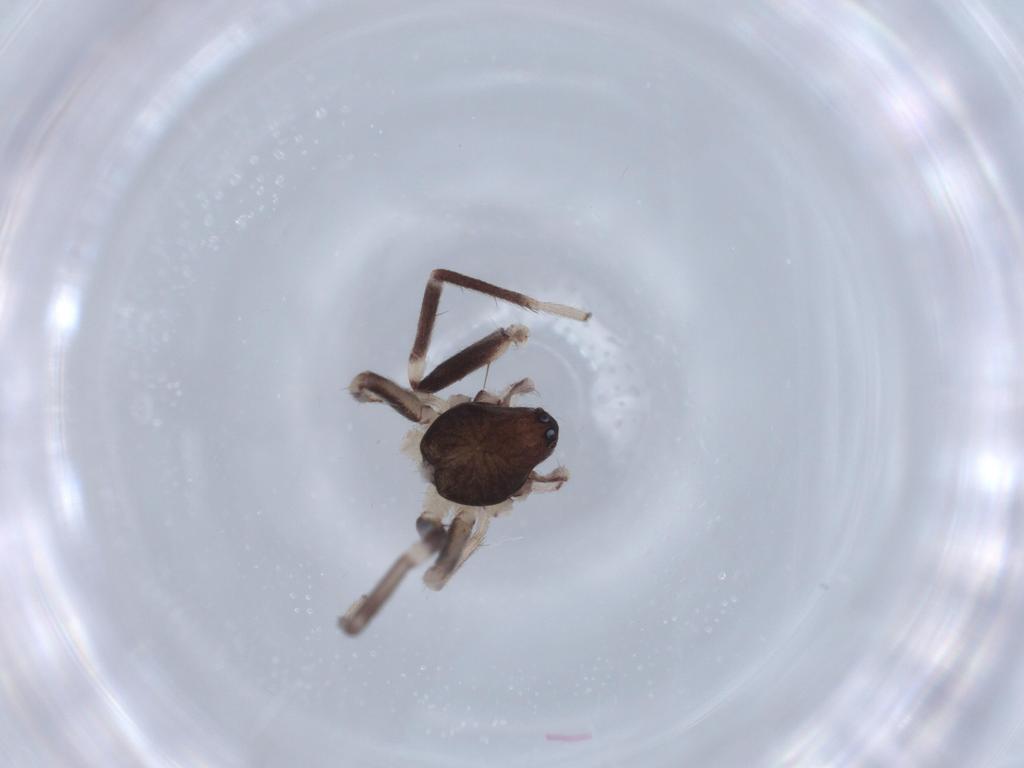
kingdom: Animalia
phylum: Arthropoda
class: Arachnida
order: Araneae
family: Corinnidae
